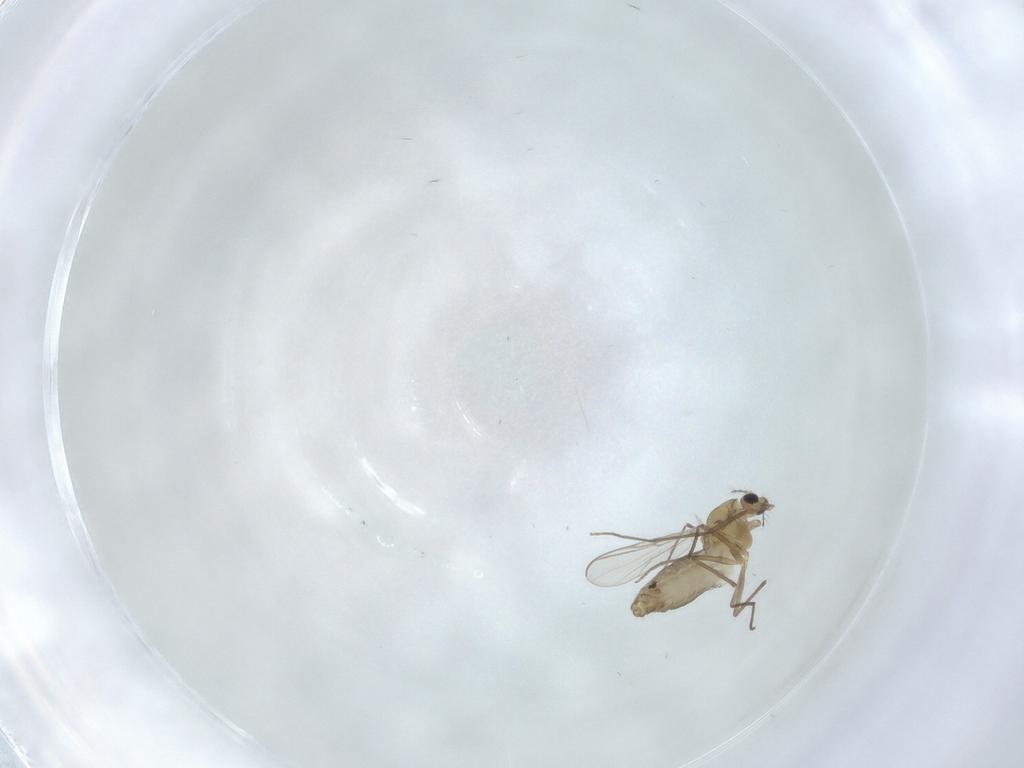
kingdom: Animalia
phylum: Arthropoda
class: Insecta
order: Diptera
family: Chironomidae
